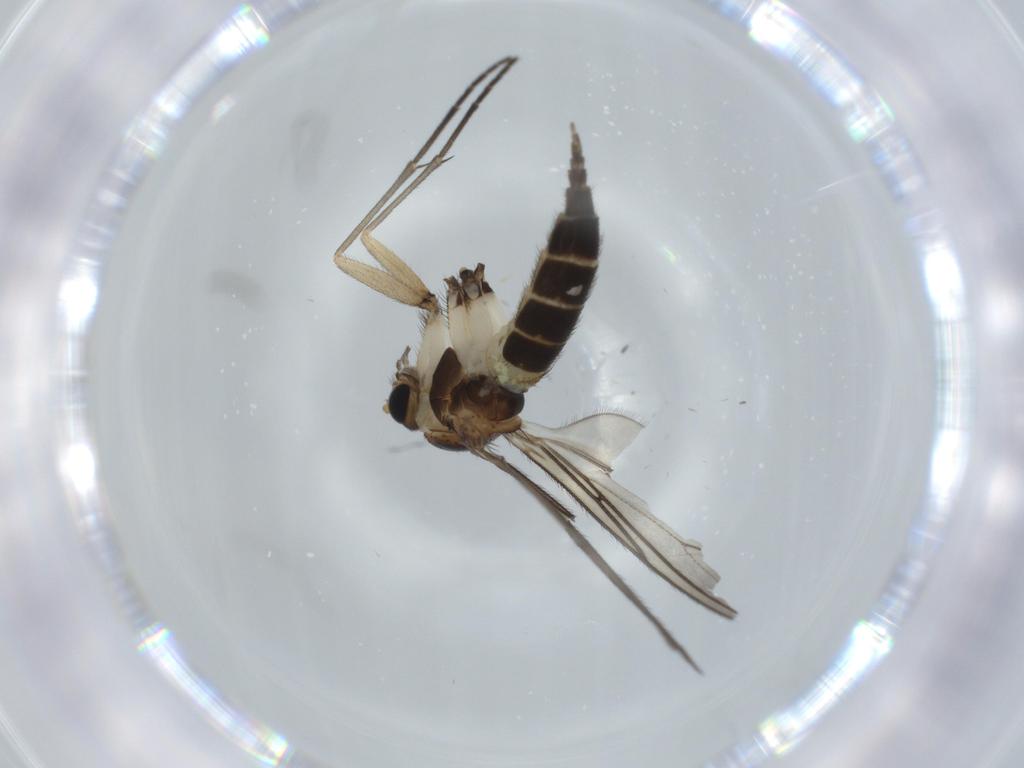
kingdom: Animalia
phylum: Arthropoda
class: Insecta
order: Diptera
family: Sciaridae
